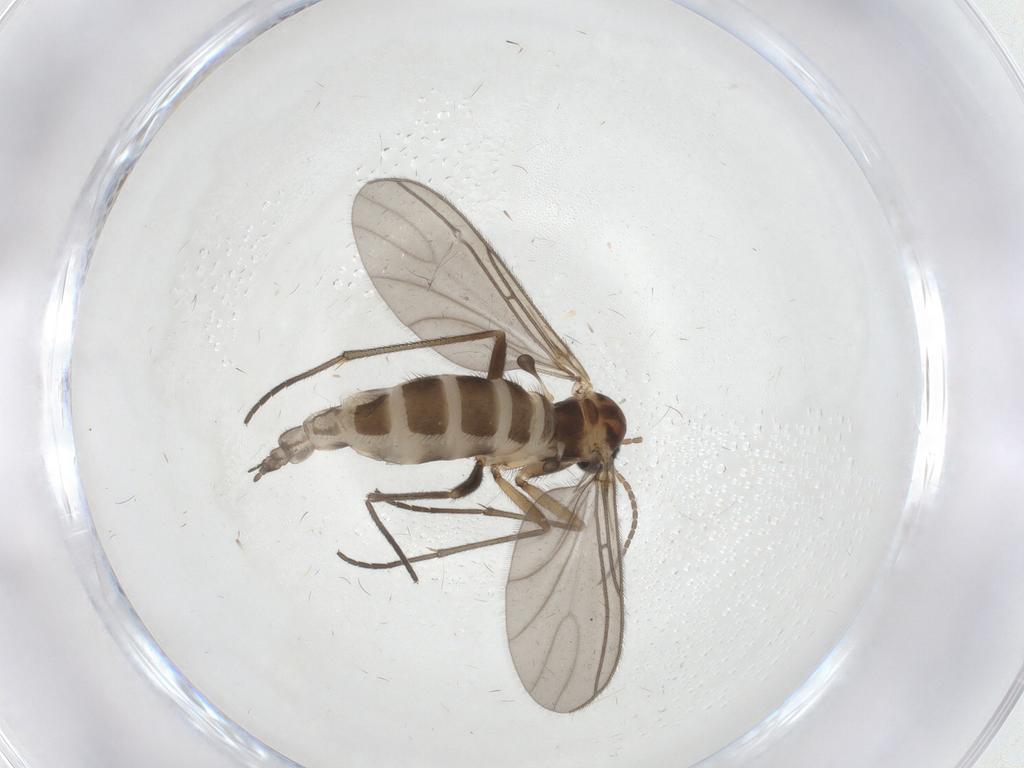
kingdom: Animalia
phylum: Arthropoda
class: Insecta
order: Diptera
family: Sciaridae
